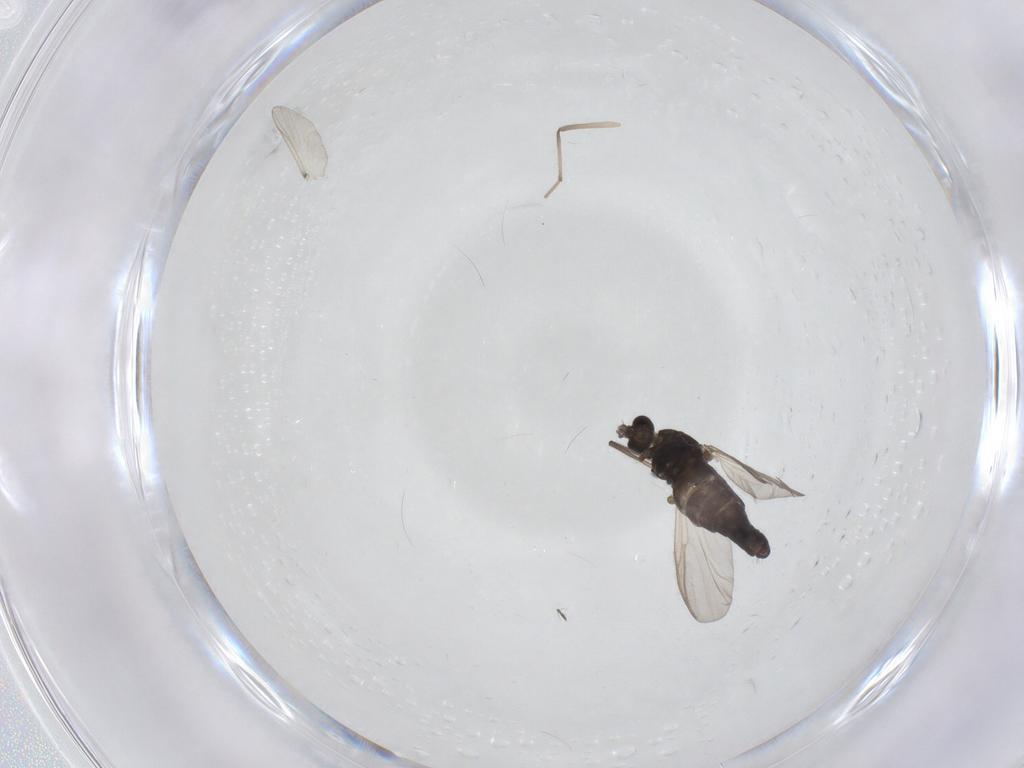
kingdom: Animalia
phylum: Arthropoda
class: Insecta
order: Diptera
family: Chironomidae
